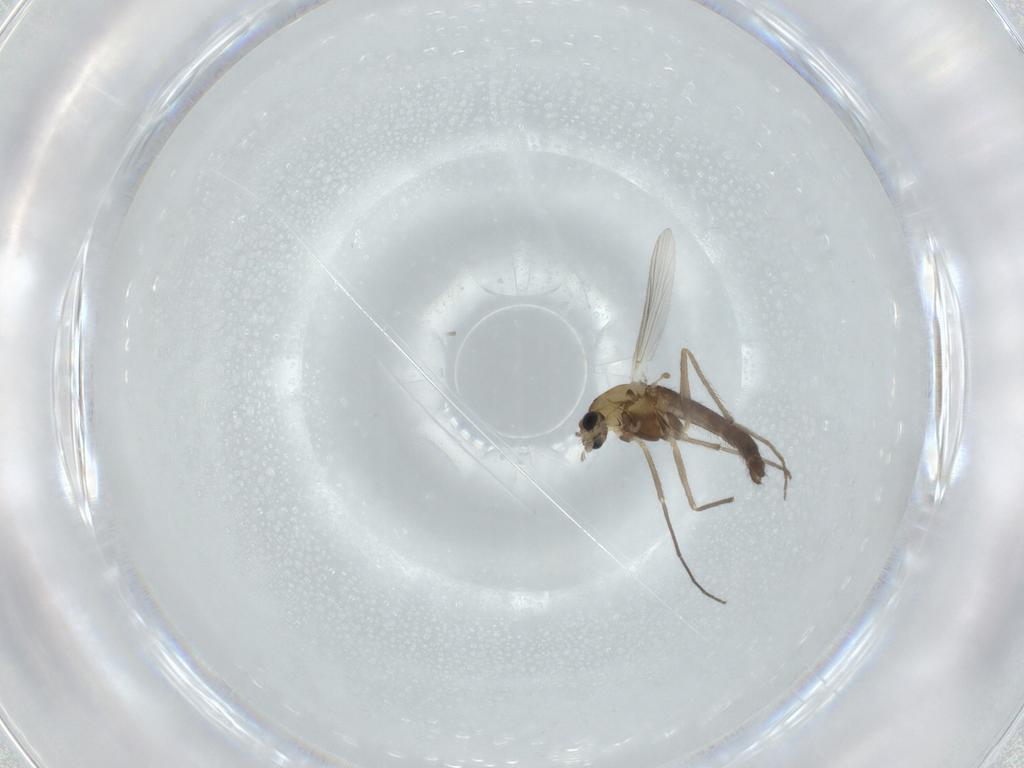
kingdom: Animalia
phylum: Arthropoda
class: Insecta
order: Diptera
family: Chironomidae
